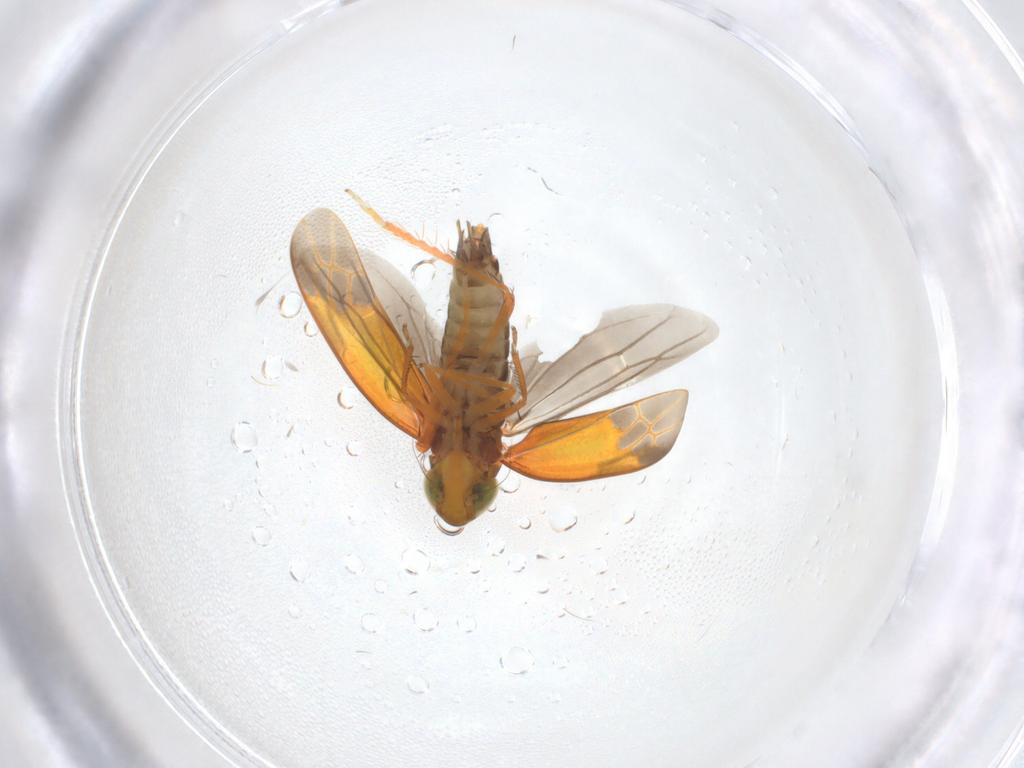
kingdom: Animalia
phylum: Arthropoda
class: Insecta
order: Hemiptera
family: Cicadellidae
